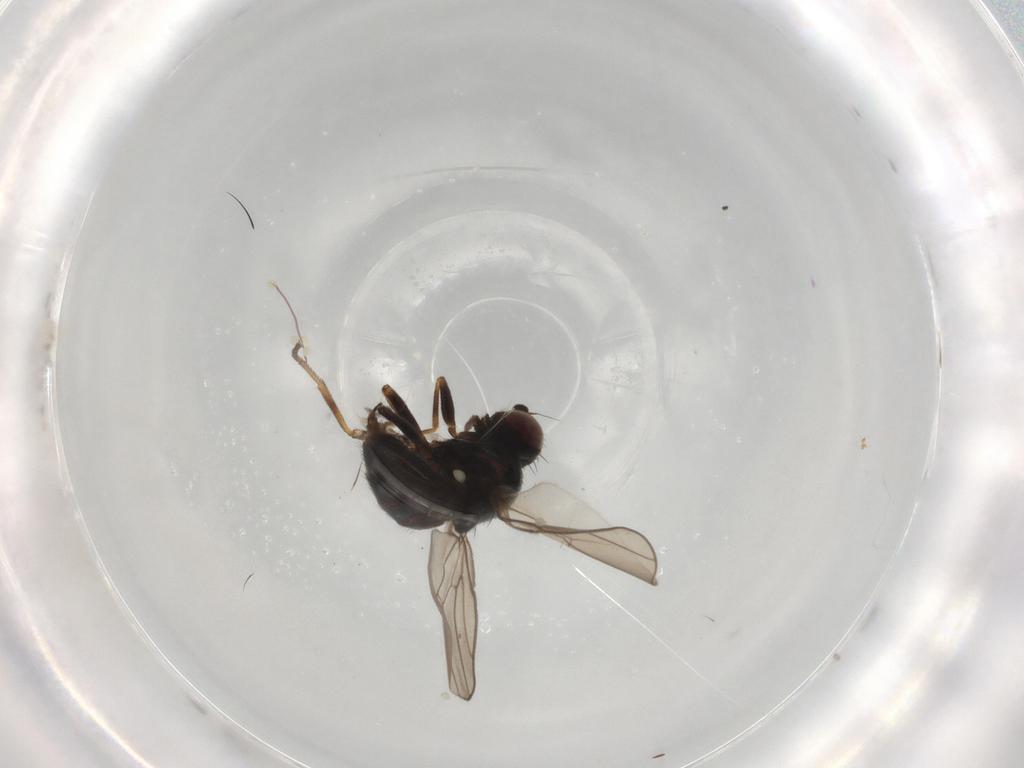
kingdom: Animalia
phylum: Arthropoda
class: Insecta
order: Diptera
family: Chloropidae
